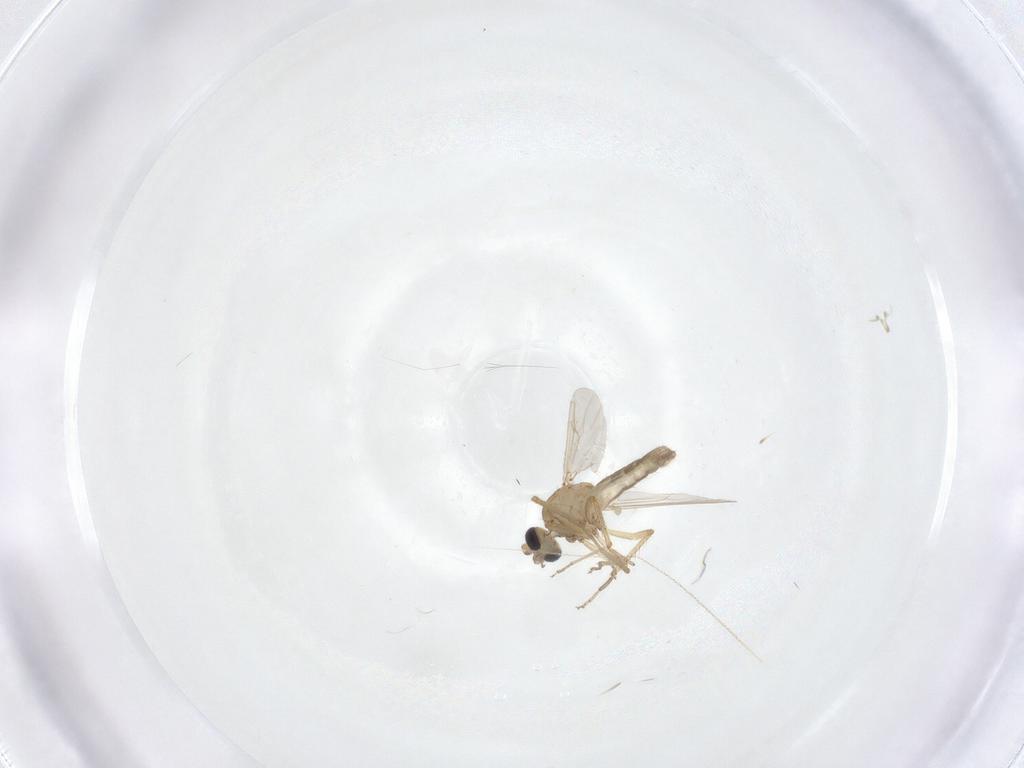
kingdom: Animalia
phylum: Arthropoda
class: Insecta
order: Diptera
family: Ceratopogonidae
